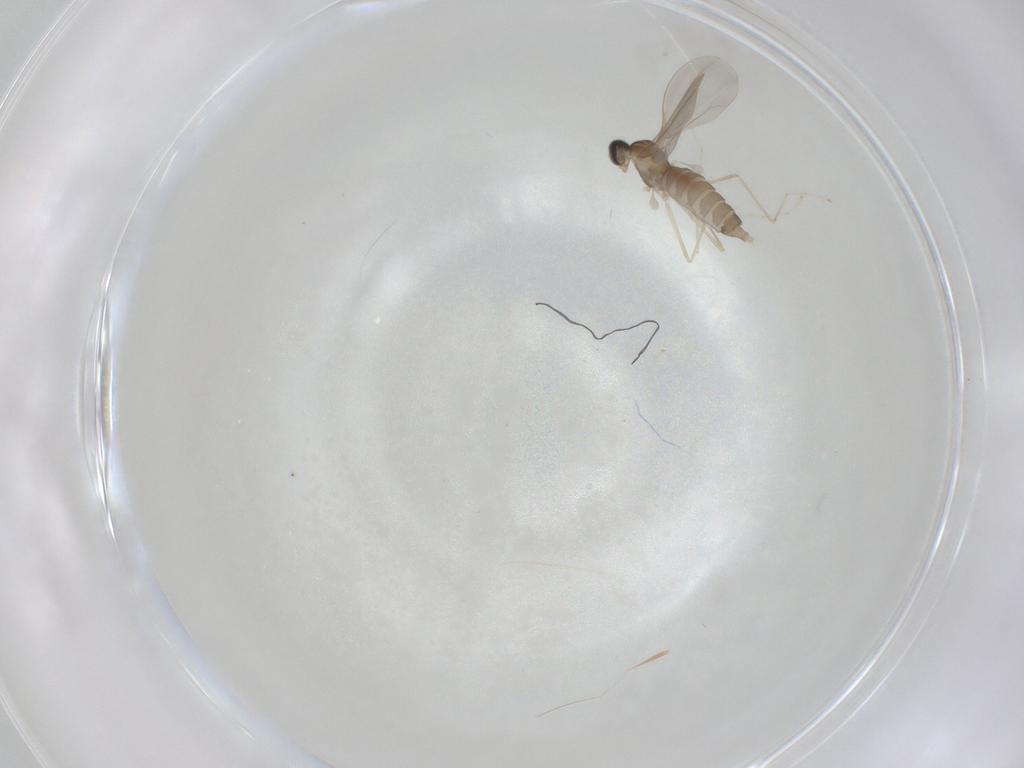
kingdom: Animalia
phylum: Arthropoda
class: Insecta
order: Diptera
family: Cecidomyiidae
